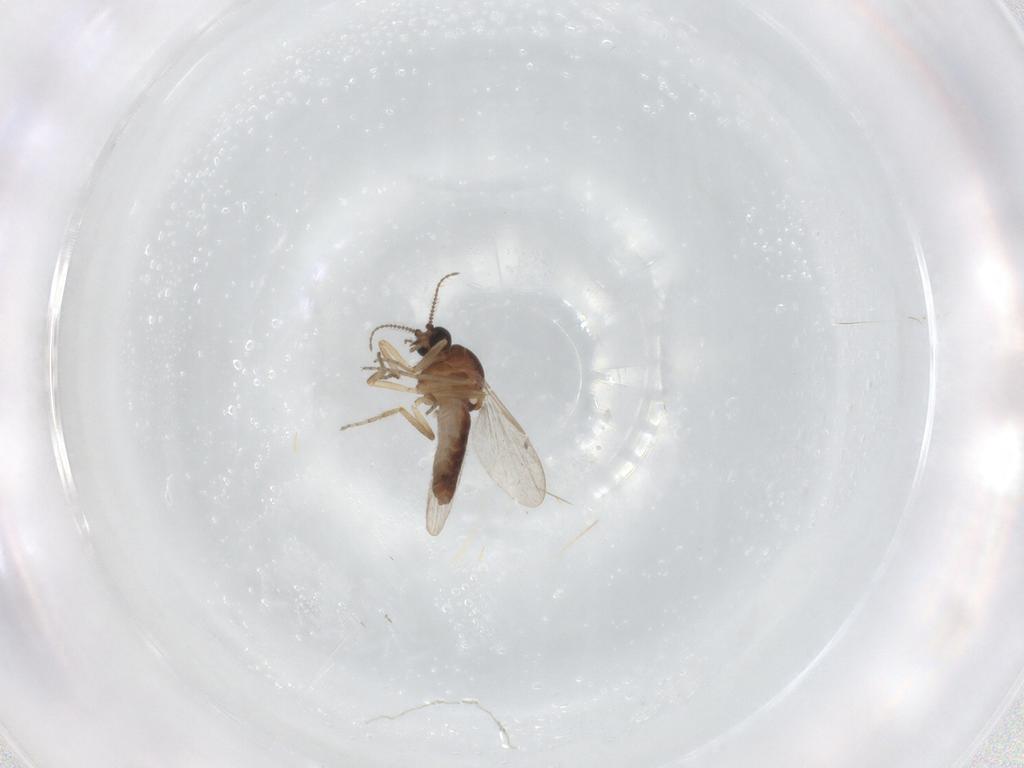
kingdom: Animalia
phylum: Arthropoda
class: Insecta
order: Diptera
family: Ceratopogonidae
